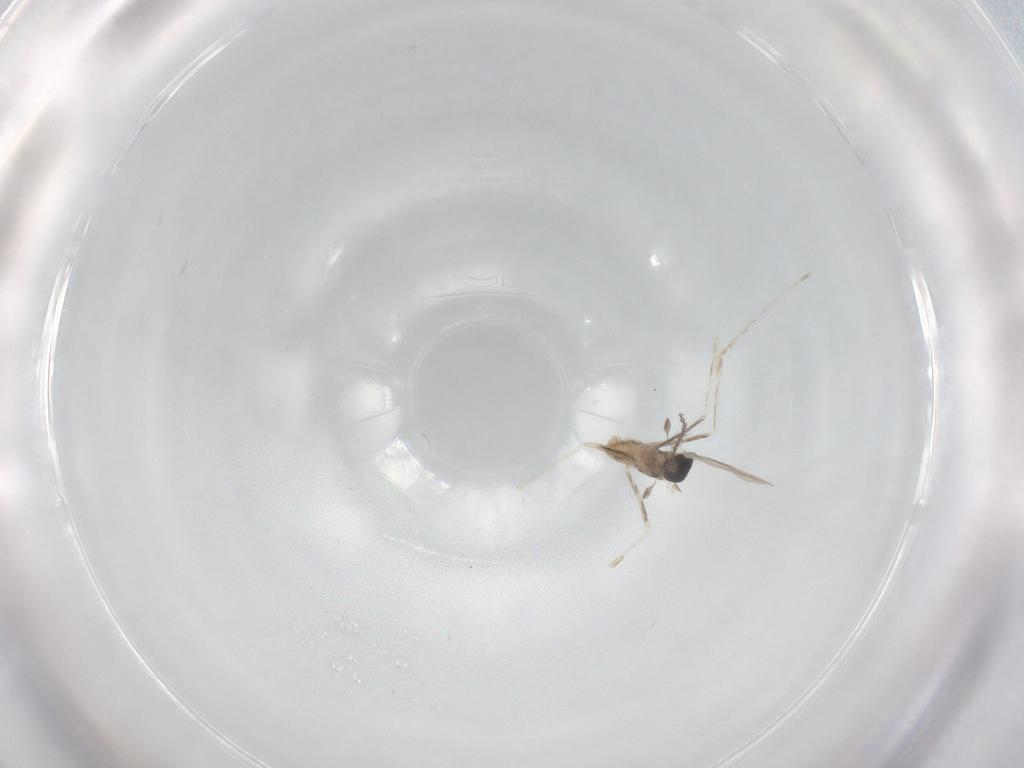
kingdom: Animalia
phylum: Arthropoda
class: Insecta
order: Diptera
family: Cecidomyiidae
